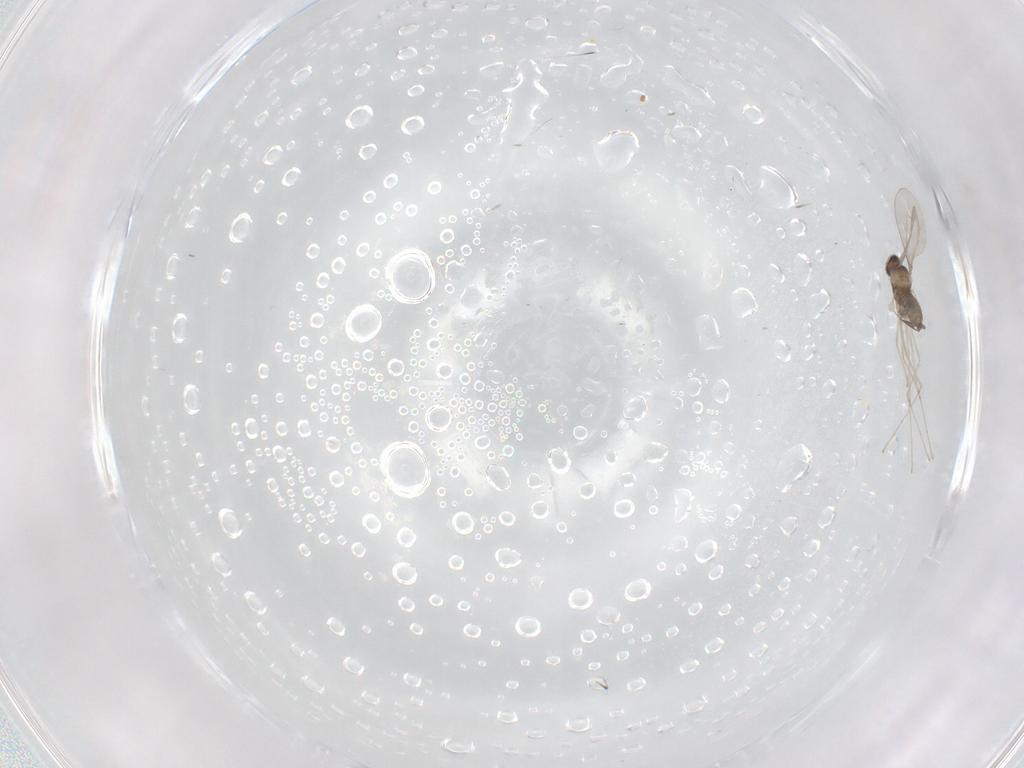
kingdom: Animalia
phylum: Arthropoda
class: Insecta
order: Diptera
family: Cecidomyiidae
